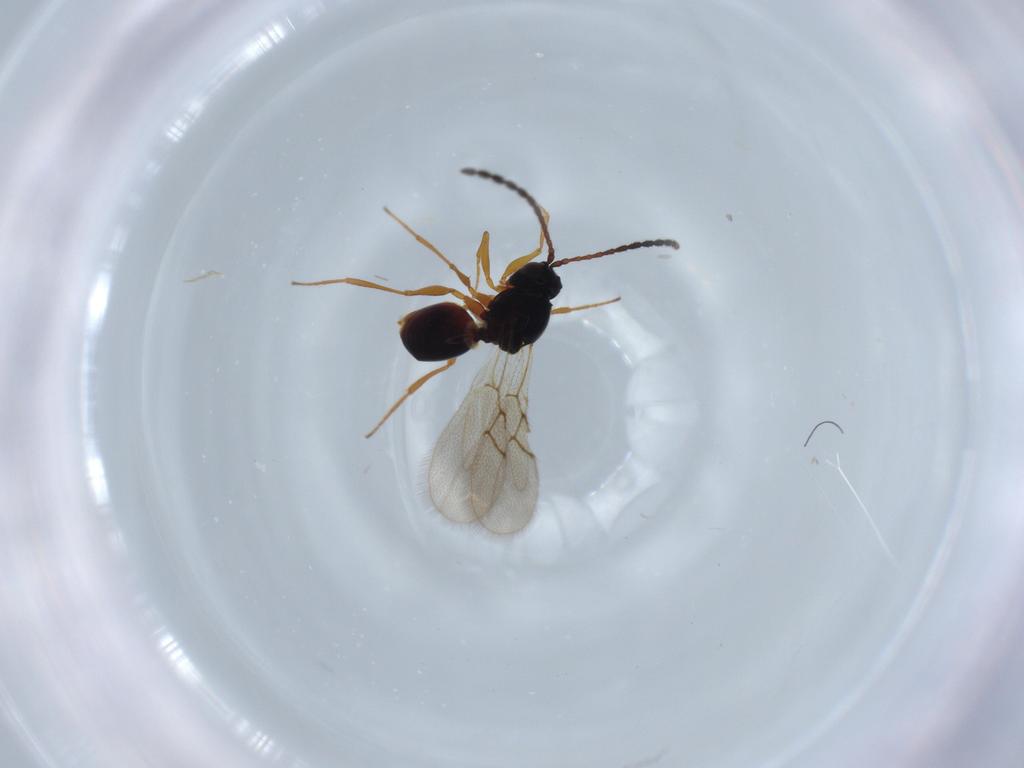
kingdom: Animalia
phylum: Arthropoda
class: Insecta
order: Hymenoptera
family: Figitidae
